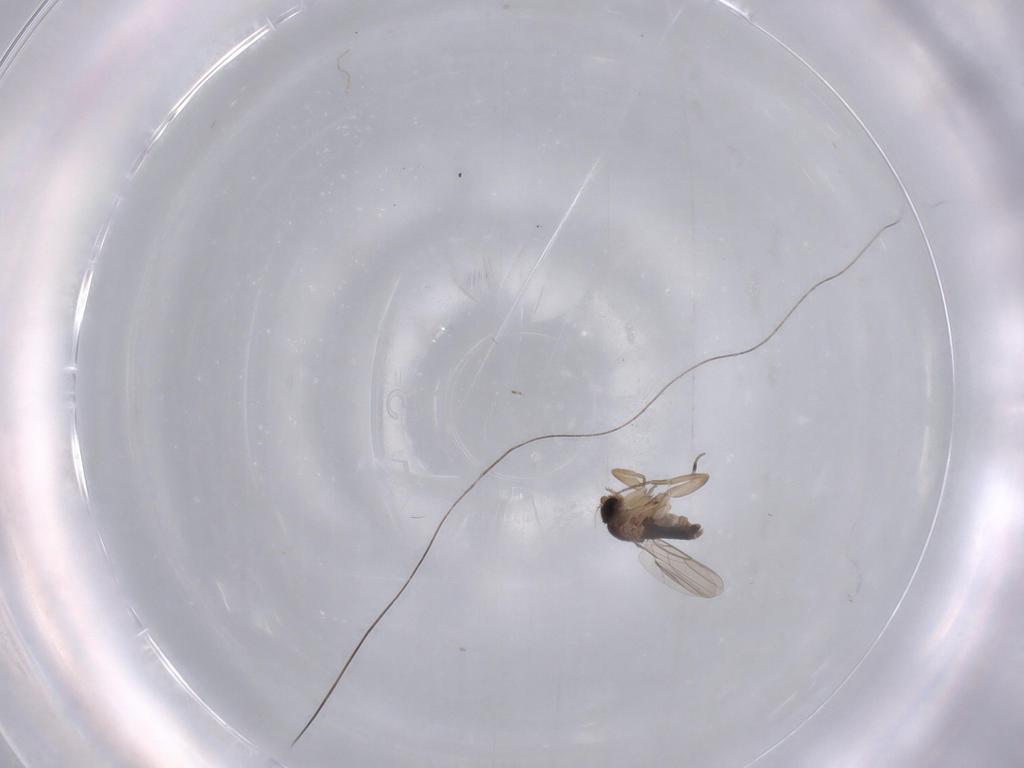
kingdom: Animalia
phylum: Arthropoda
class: Insecta
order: Diptera
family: Phoridae
